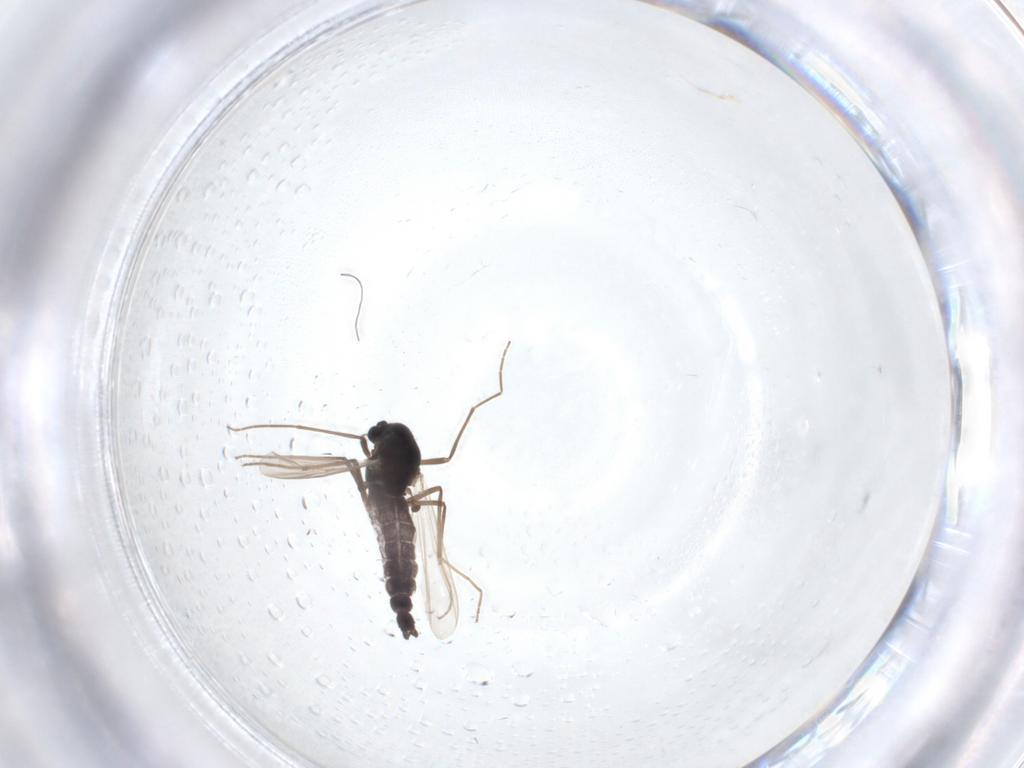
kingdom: Animalia
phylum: Arthropoda
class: Insecta
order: Diptera
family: Chironomidae
